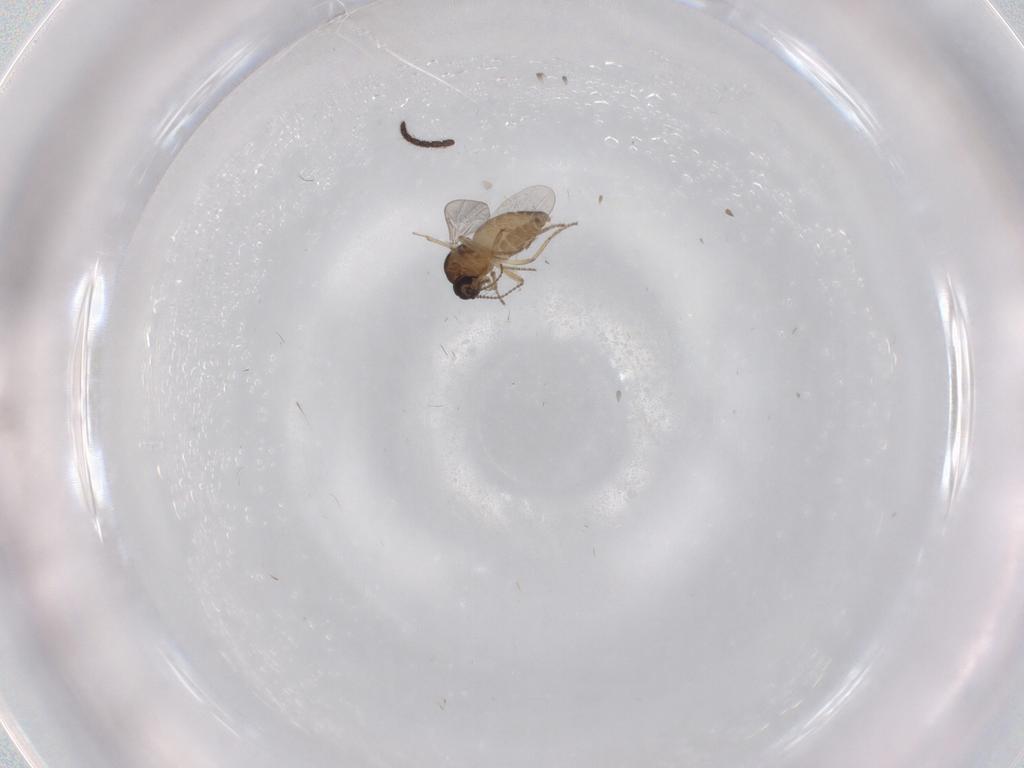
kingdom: Animalia
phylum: Arthropoda
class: Insecta
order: Diptera
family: Ceratopogonidae
